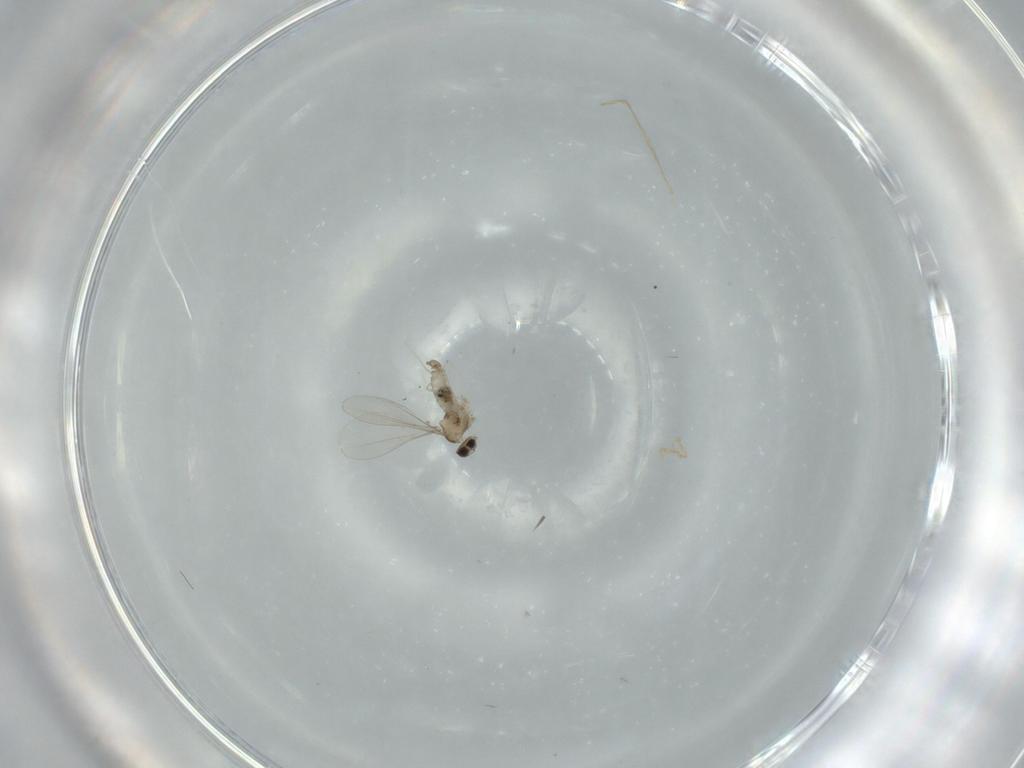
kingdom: Animalia
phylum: Arthropoda
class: Insecta
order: Diptera
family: Cecidomyiidae
